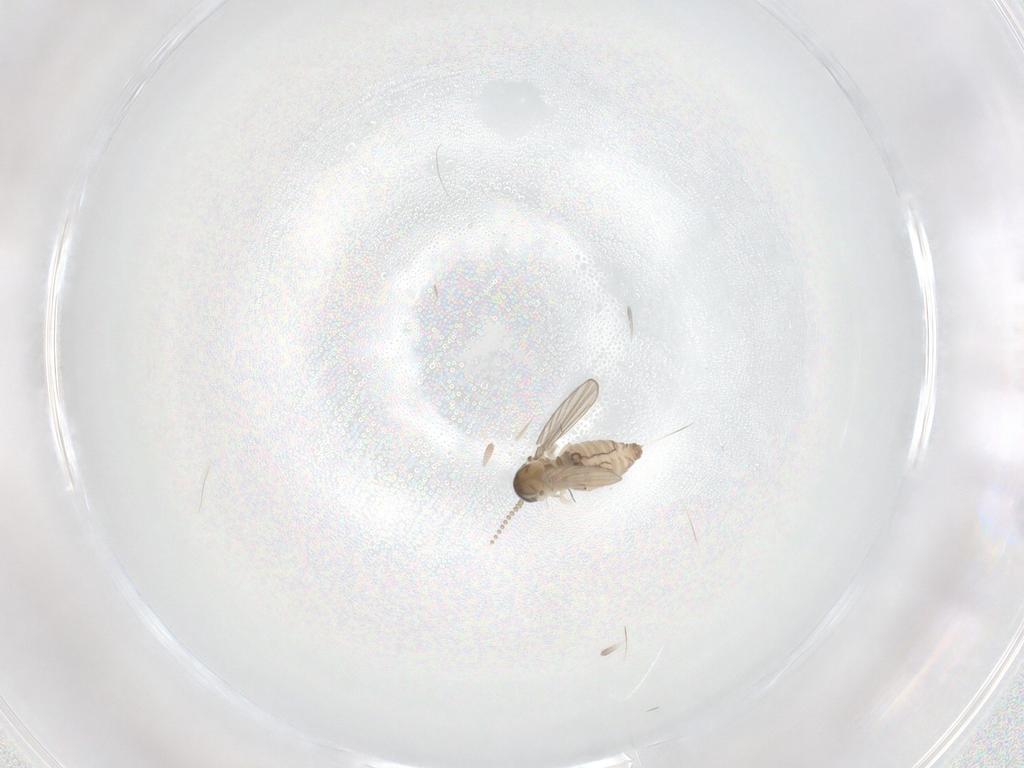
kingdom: Animalia
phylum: Arthropoda
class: Insecta
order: Diptera
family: Psychodidae
